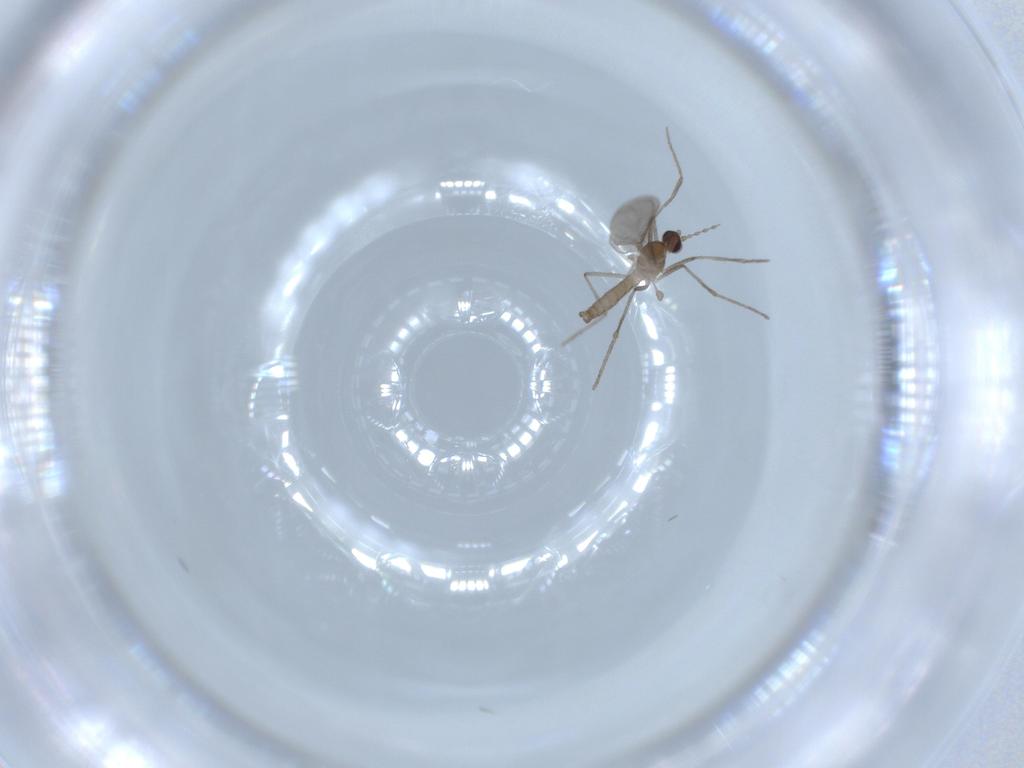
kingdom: Animalia
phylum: Arthropoda
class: Insecta
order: Diptera
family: Cecidomyiidae
